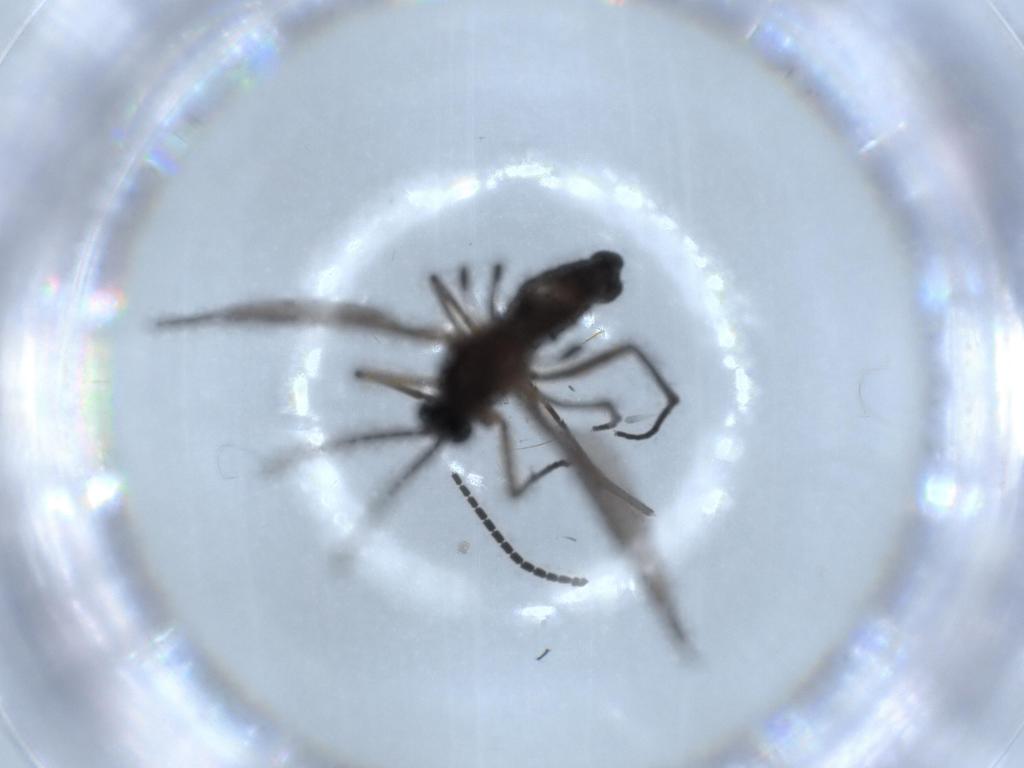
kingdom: Animalia
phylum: Arthropoda
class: Insecta
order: Diptera
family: Sciaridae
